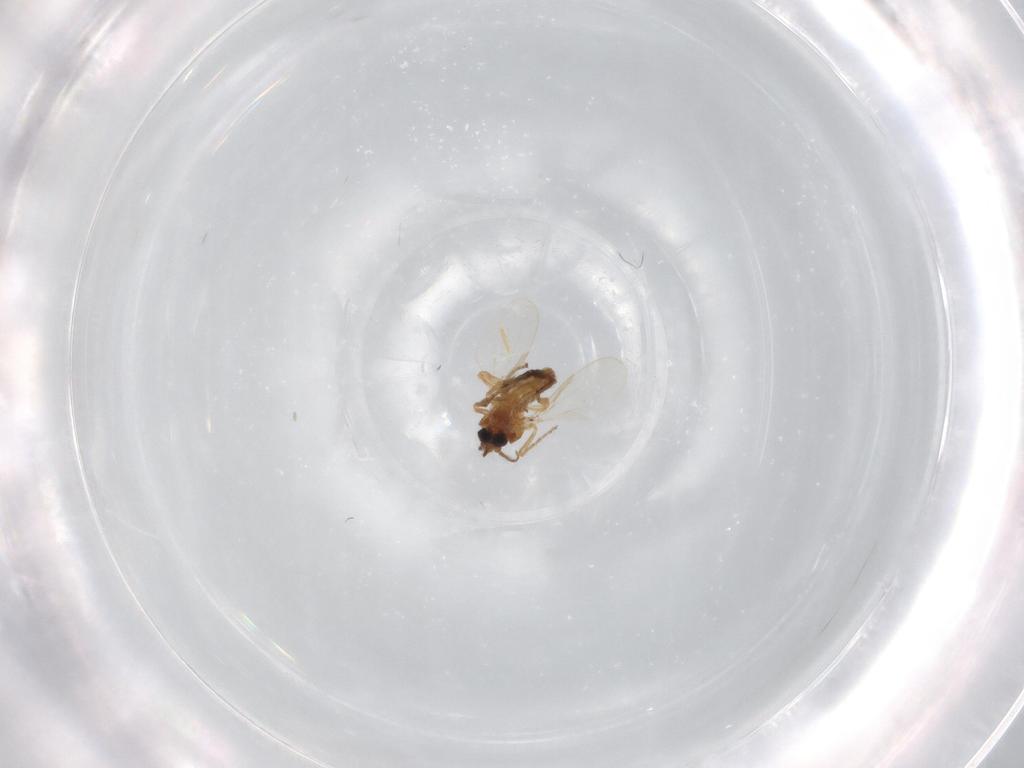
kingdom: Animalia
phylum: Arthropoda
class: Insecta
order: Diptera
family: Ceratopogonidae
